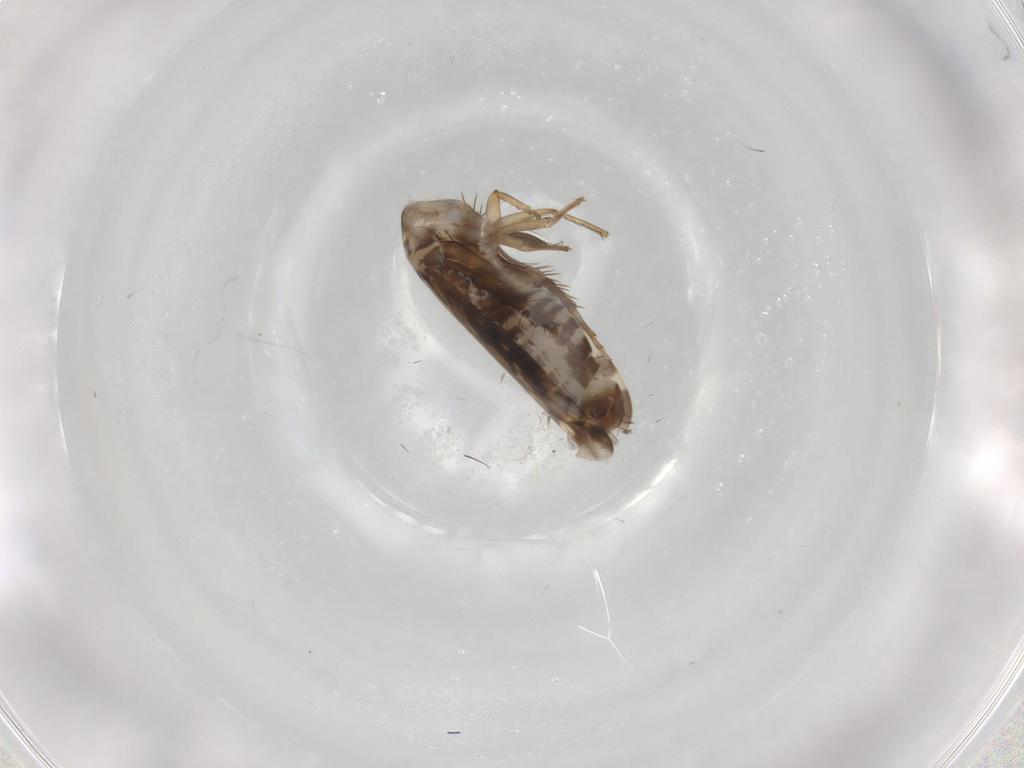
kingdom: Animalia
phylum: Arthropoda
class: Insecta
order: Hemiptera
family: Cicadellidae
